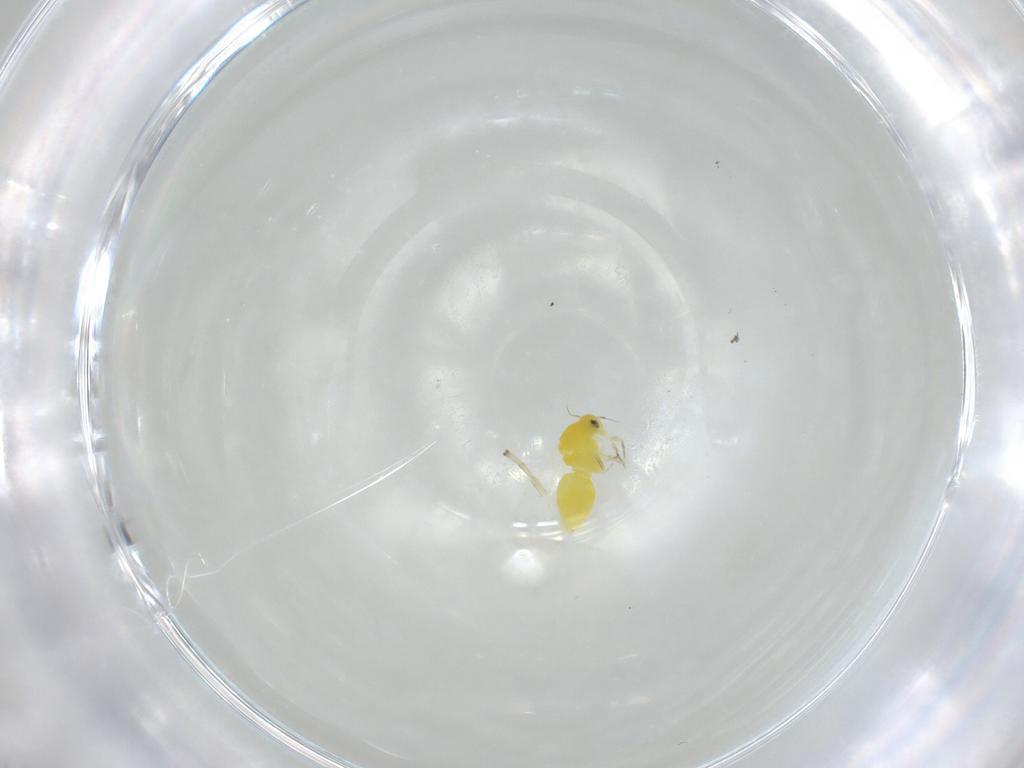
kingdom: Animalia
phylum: Arthropoda
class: Insecta
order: Hemiptera
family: Aleyrodidae
